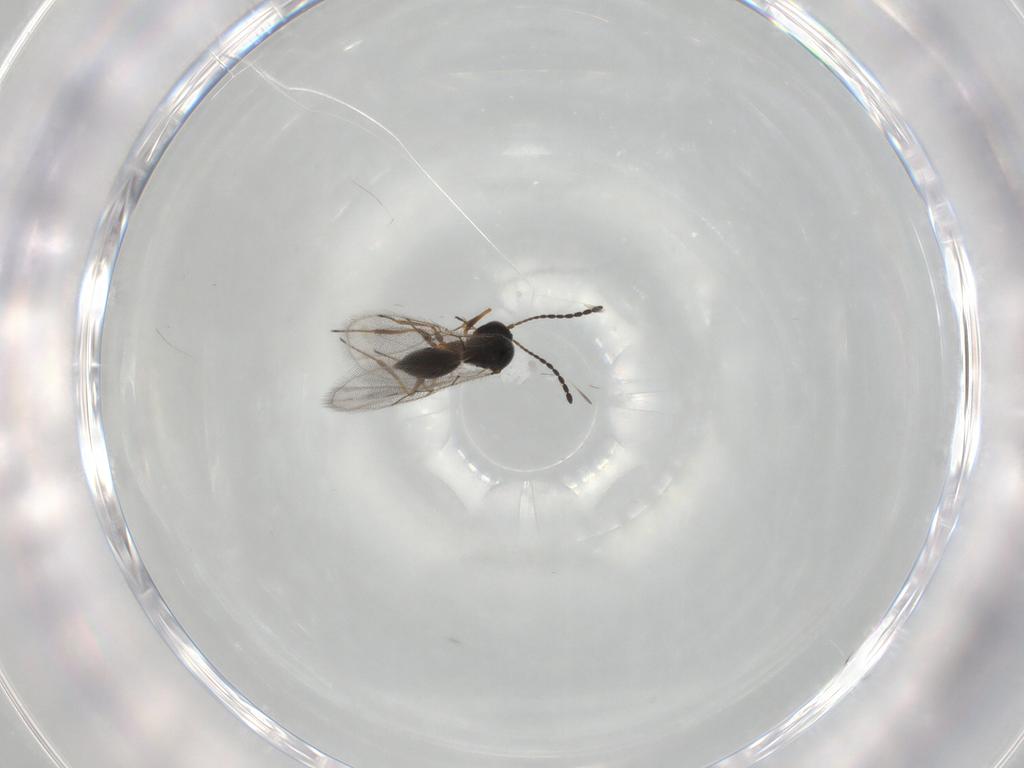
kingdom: Animalia
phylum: Arthropoda
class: Insecta
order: Hymenoptera
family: Figitidae
